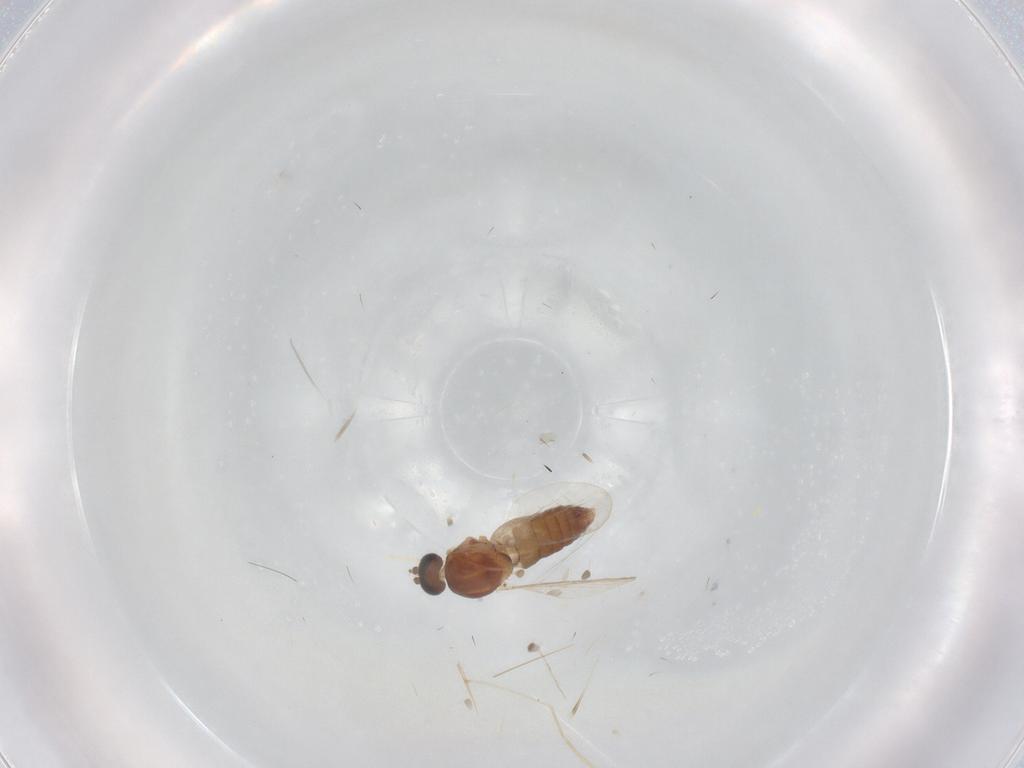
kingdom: Animalia
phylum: Arthropoda
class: Insecta
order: Diptera
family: Cecidomyiidae
